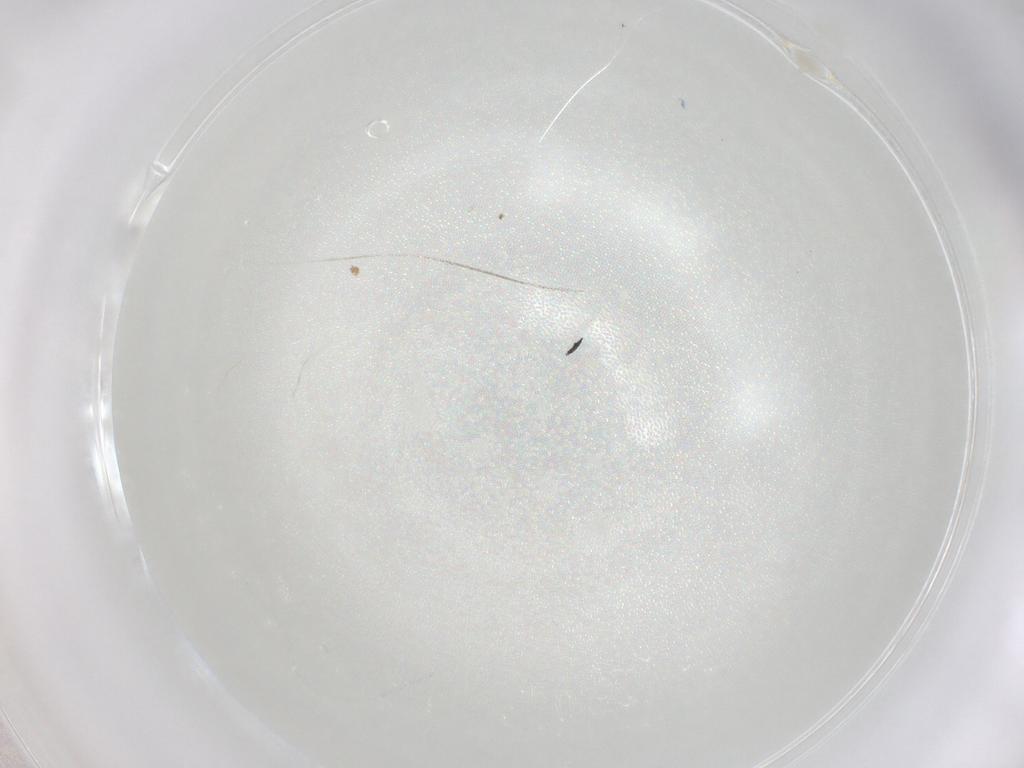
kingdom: Animalia
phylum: Arthropoda
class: Arachnida
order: Trombidiformes
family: Eupodidae
